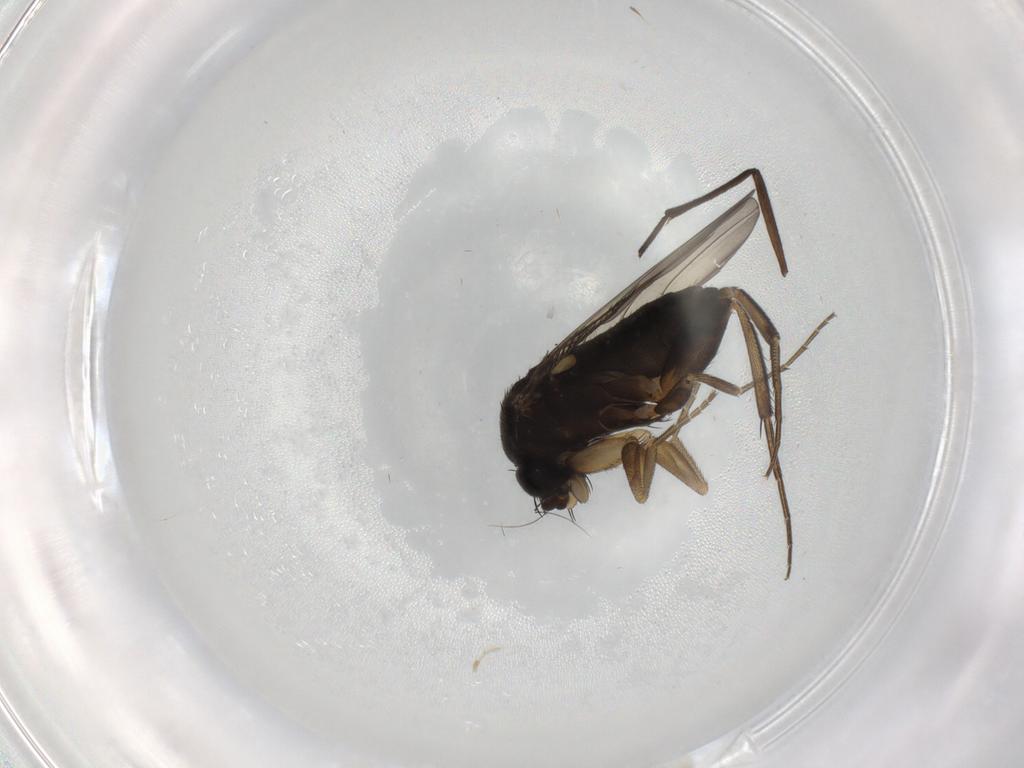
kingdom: Animalia
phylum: Arthropoda
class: Insecta
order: Diptera
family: Phoridae
